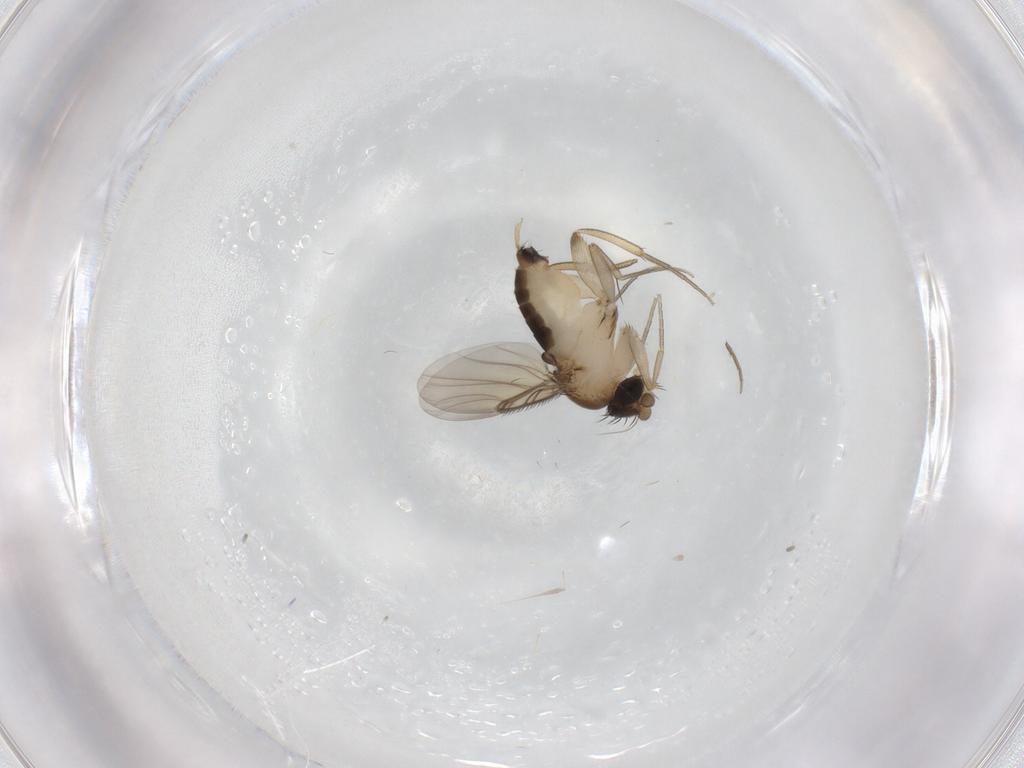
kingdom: Animalia
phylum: Arthropoda
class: Insecta
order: Diptera
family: Phoridae
